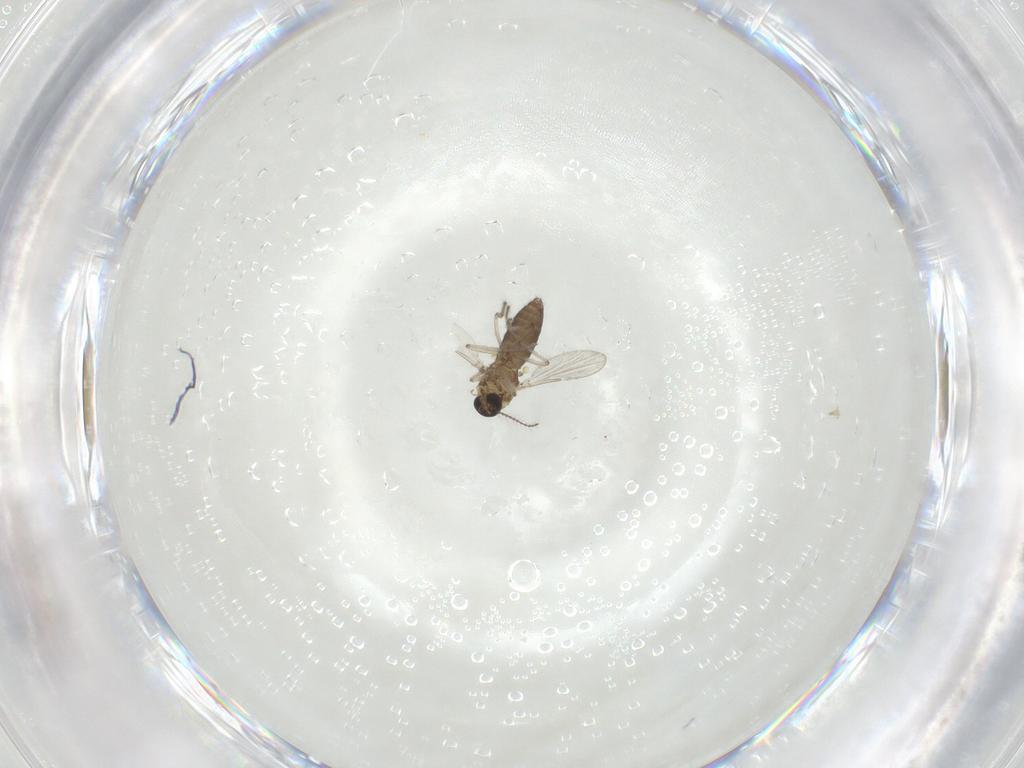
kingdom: Animalia
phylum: Arthropoda
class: Insecta
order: Diptera
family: Ceratopogonidae
